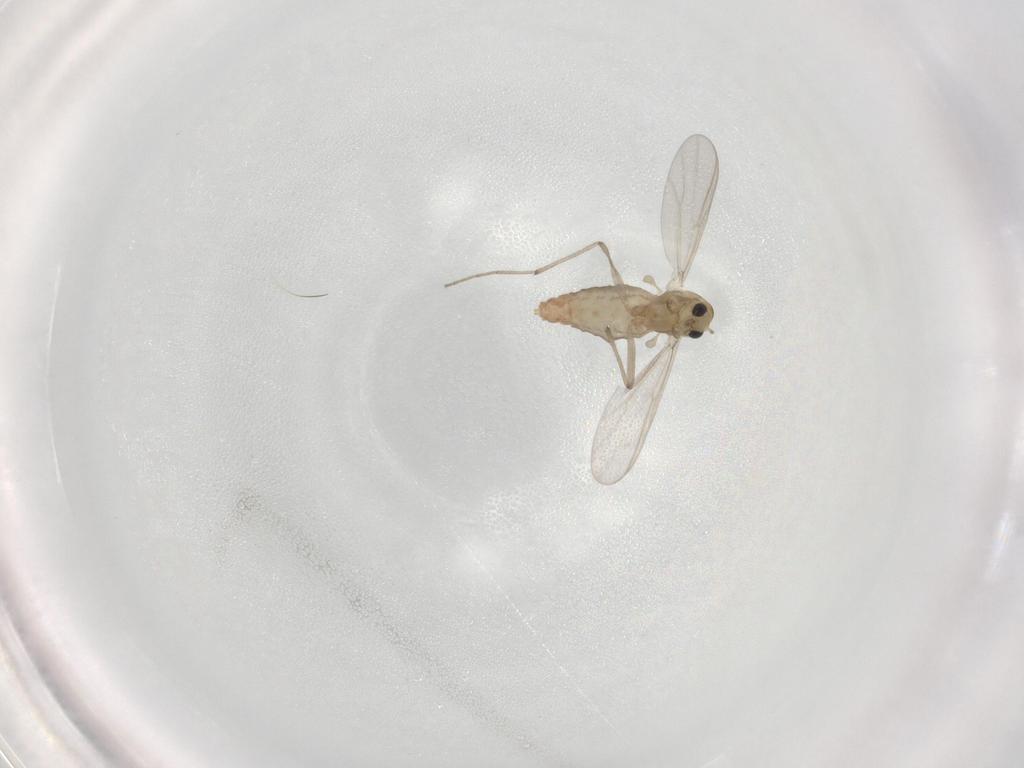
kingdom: Animalia
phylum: Arthropoda
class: Insecta
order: Diptera
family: Chironomidae
